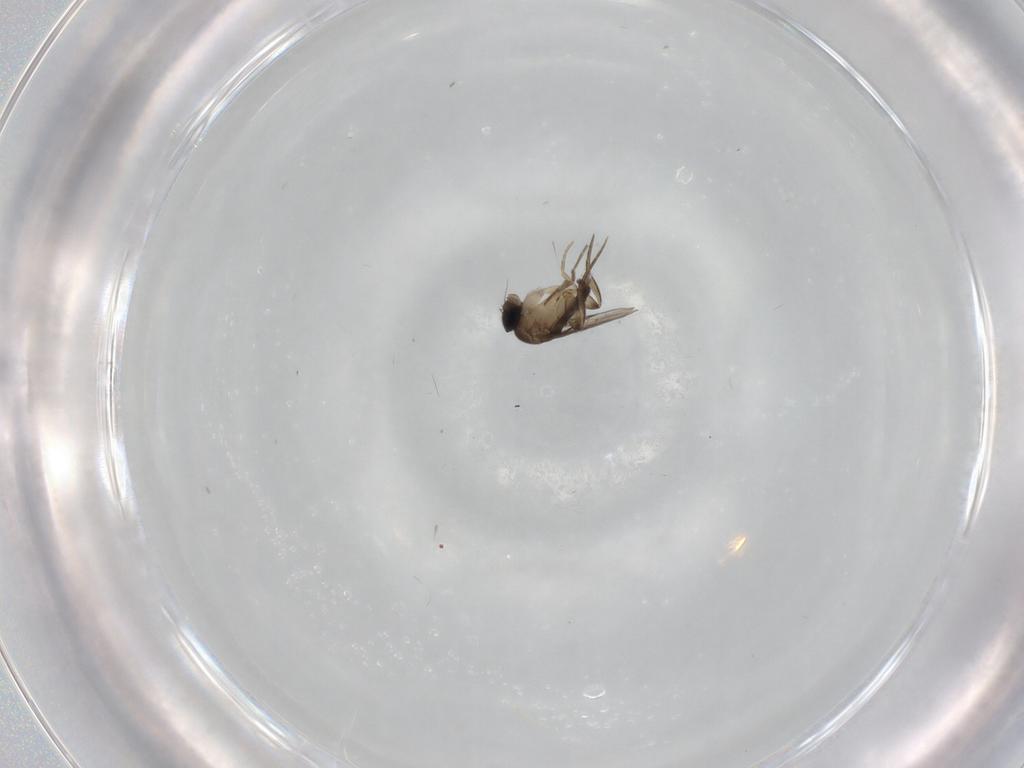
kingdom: Animalia
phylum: Arthropoda
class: Insecta
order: Diptera
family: Phoridae
